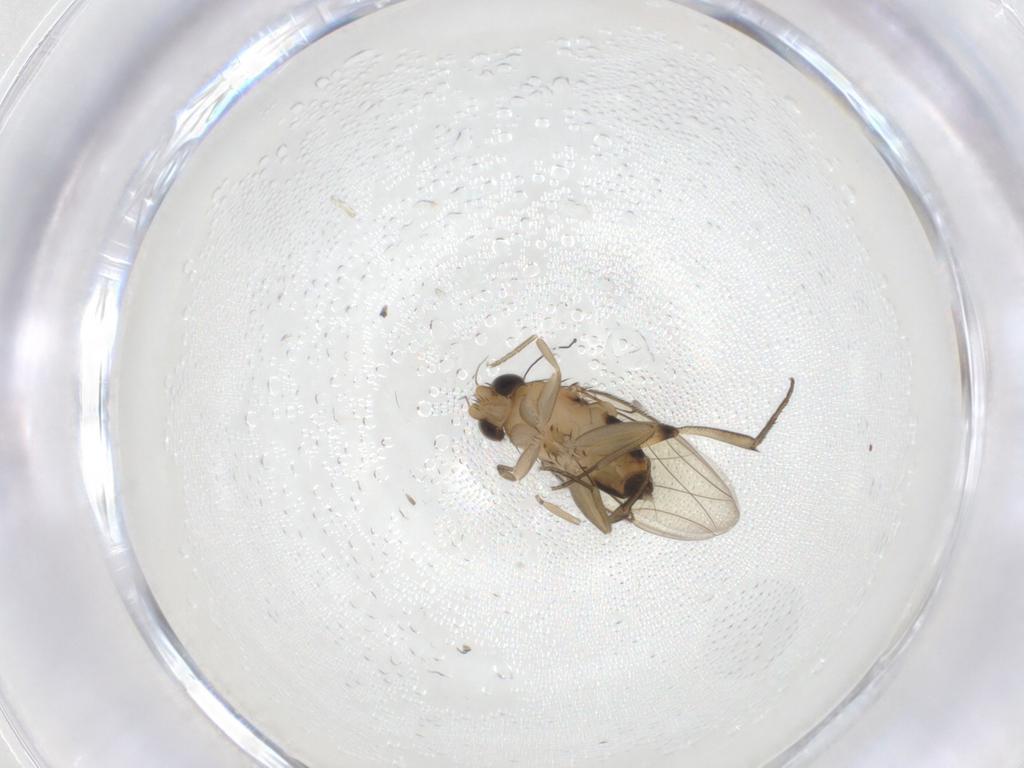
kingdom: Animalia
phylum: Arthropoda
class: Insecta
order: Diptera
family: Phoridae
